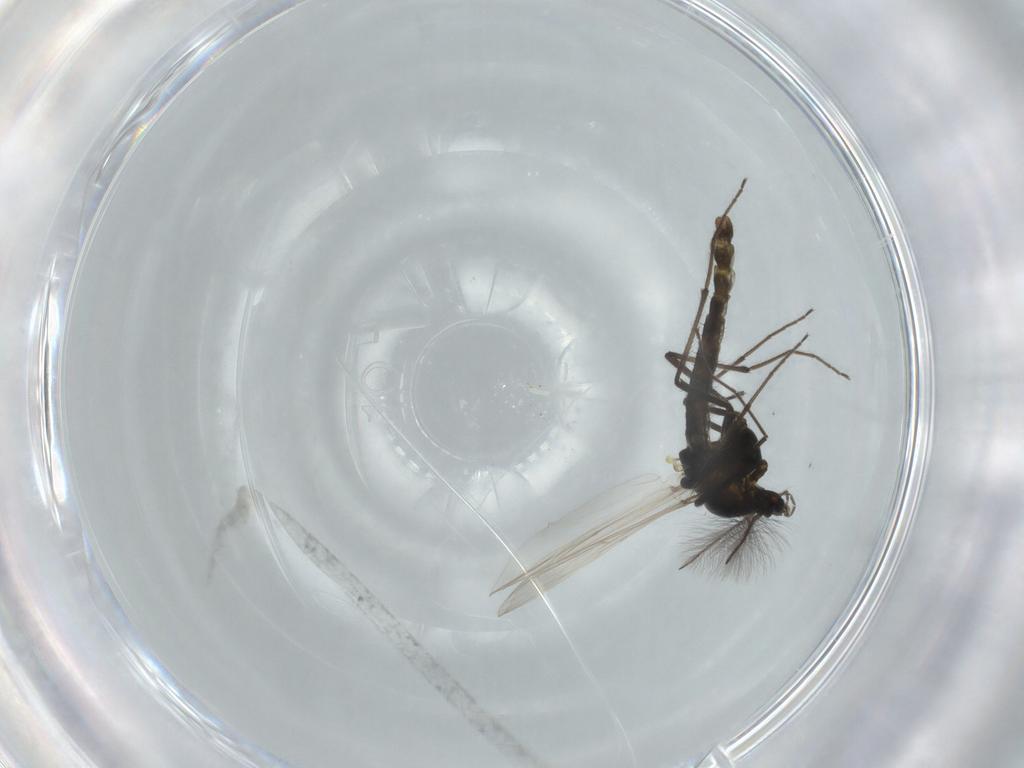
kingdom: Animalia
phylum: Arthropoda
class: Insecta
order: Diptera
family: Chironomidae
